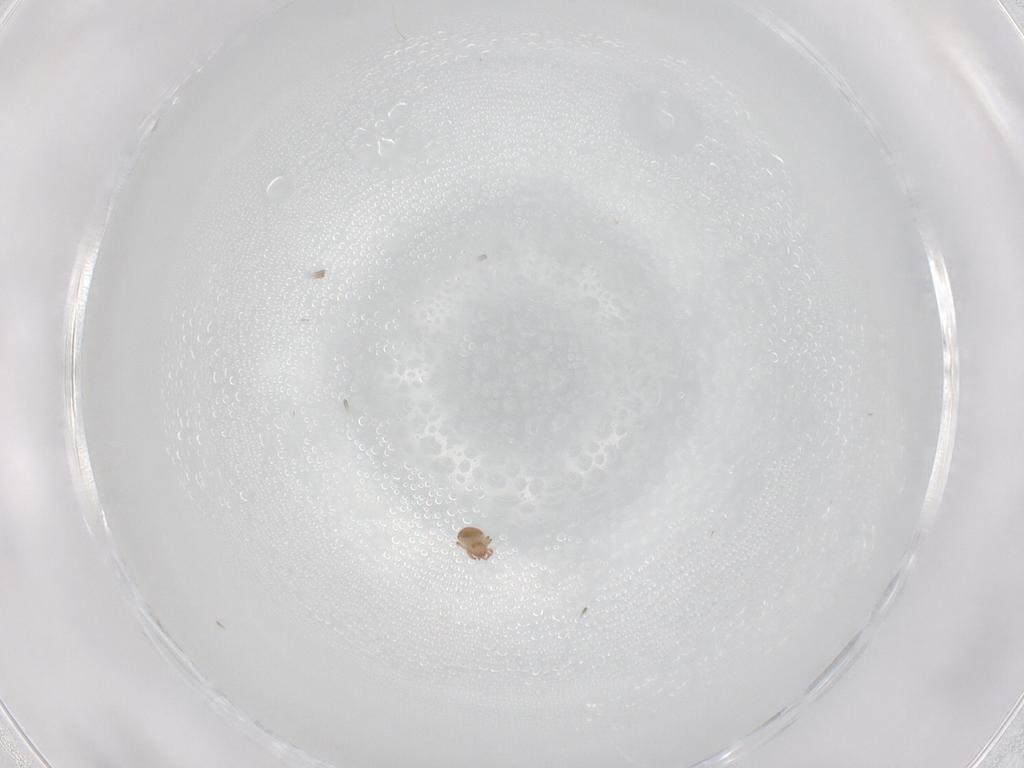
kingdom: Animalia
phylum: Arthropoda
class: Arachnida
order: Sarcoptiformes
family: Humerobatidae
